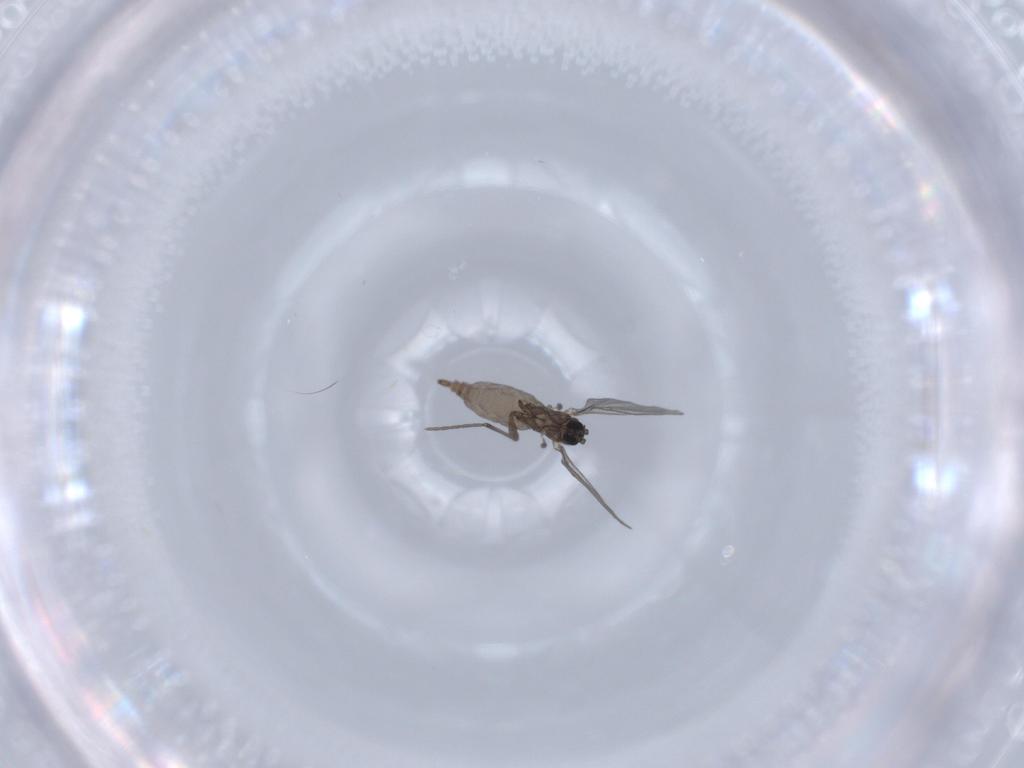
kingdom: Animalia
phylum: Arthropoda
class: Insecta
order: Diptera
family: Sciaridae
